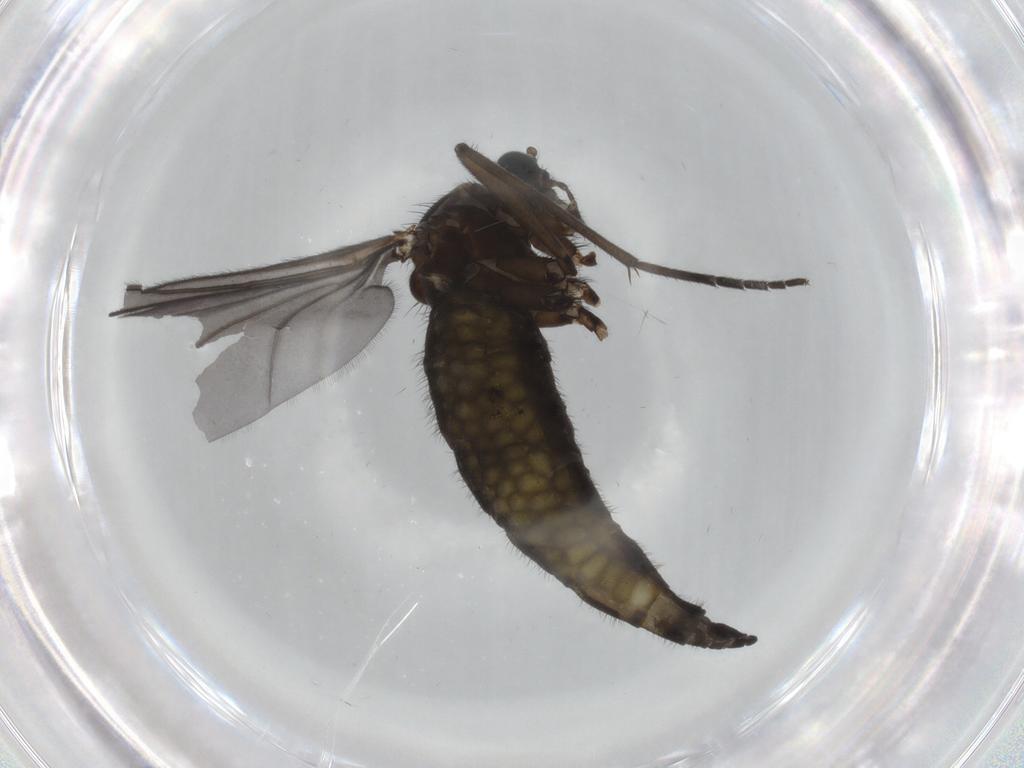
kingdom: Animalia
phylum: Arthropoda
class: Insecta
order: Diptera
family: Sciaridae
